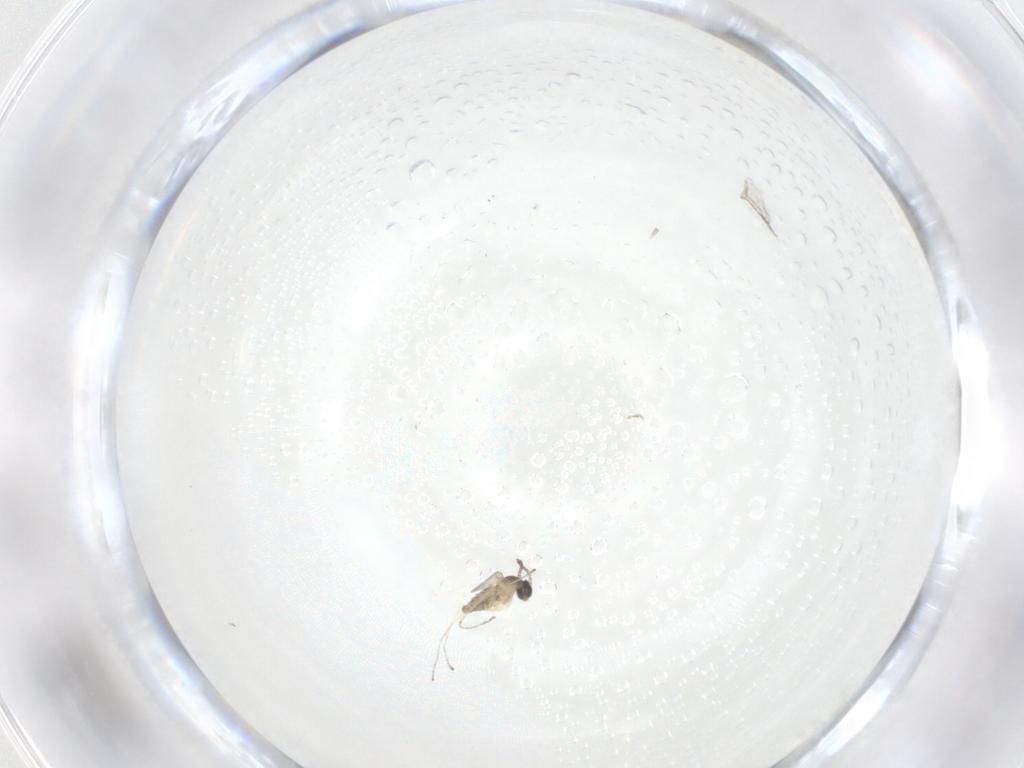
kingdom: Animalia
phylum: Arthropoda
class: Insecta
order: Diptera
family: Cecidomyiidae
